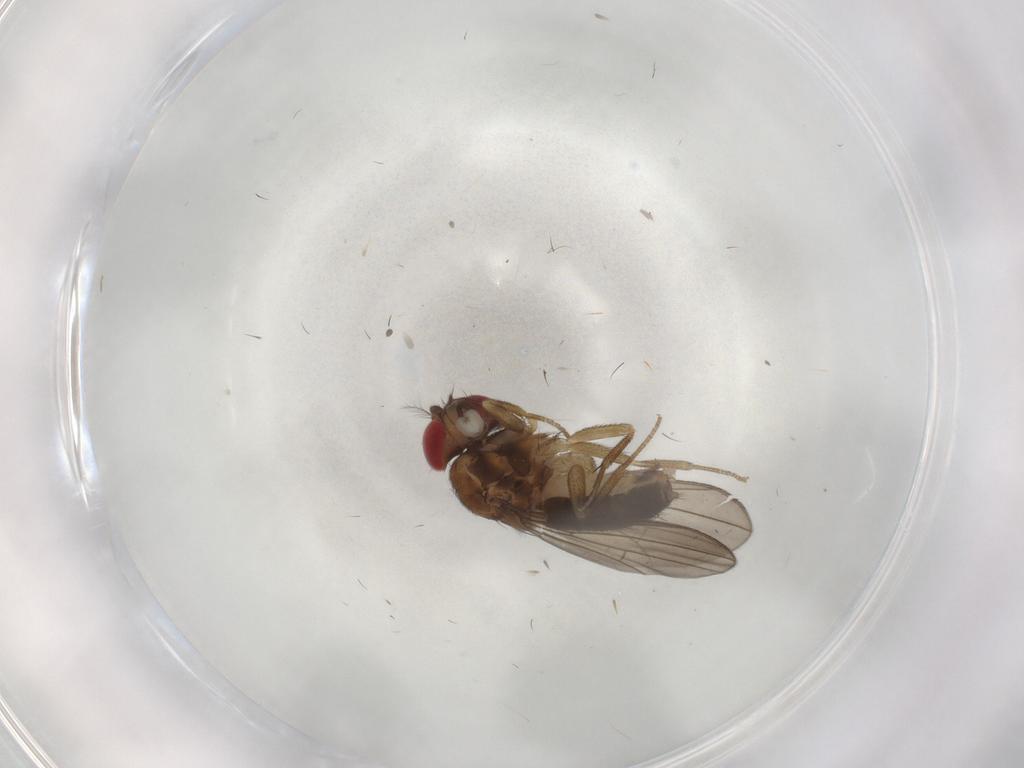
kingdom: Animalia
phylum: Arthropoda
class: Insecta
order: Diptera
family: Drosophilidae
